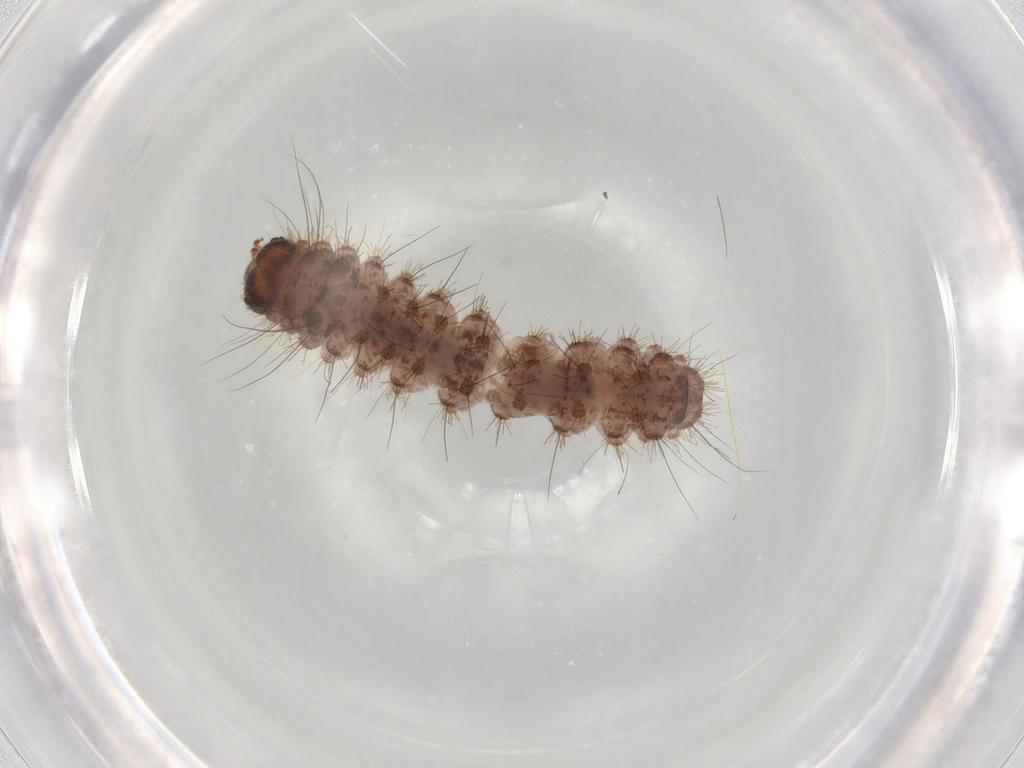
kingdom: Animalia
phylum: Arthropoda
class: Insecta
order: Lepidoptera
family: Erebidae
